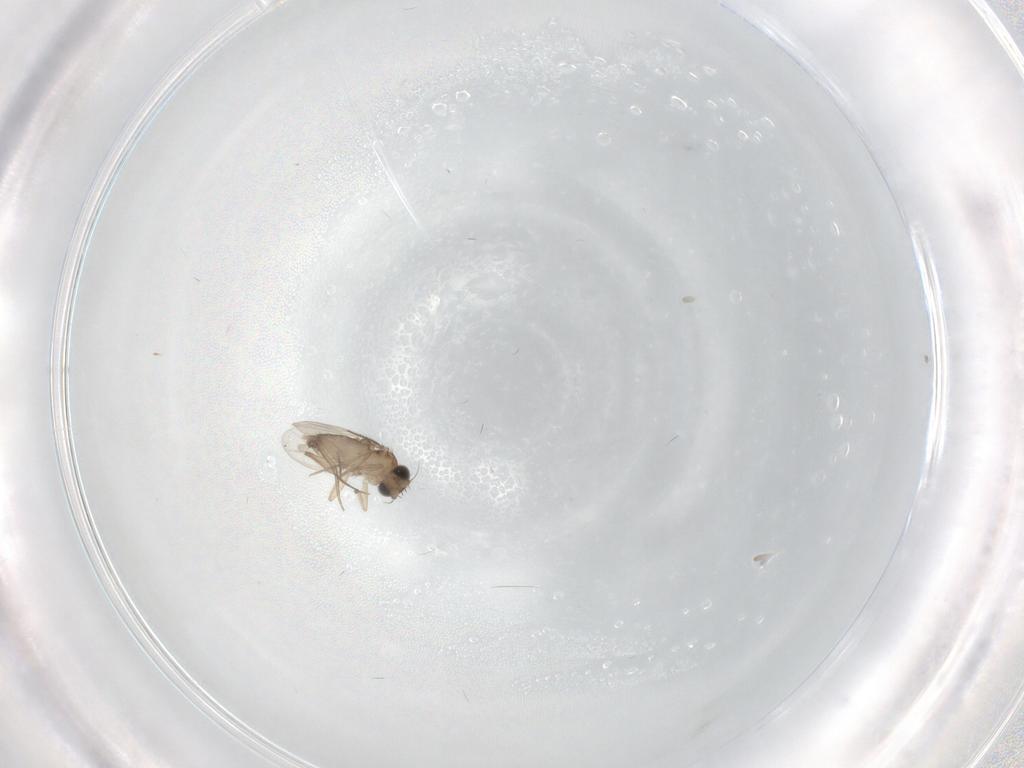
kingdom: Animalia
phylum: Arthropoda
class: Insecta
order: Diptera
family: Phoridae
